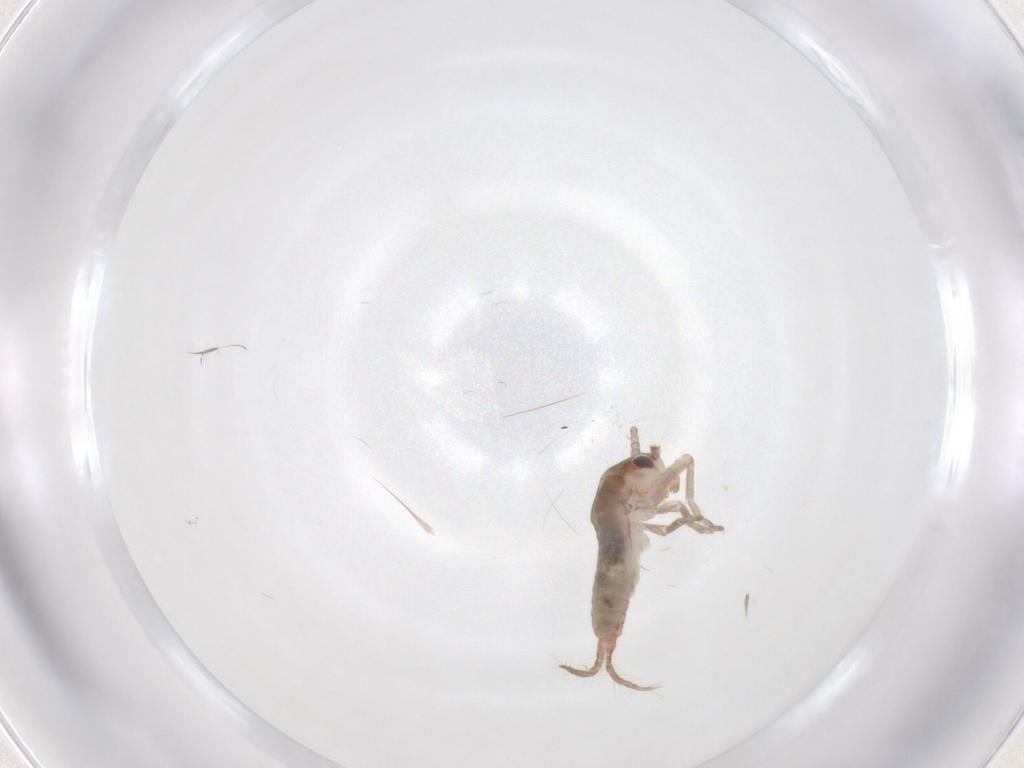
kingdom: Animalia
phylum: Arthropoda
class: Insecta
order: Orthoptera
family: Mogoplistidae
